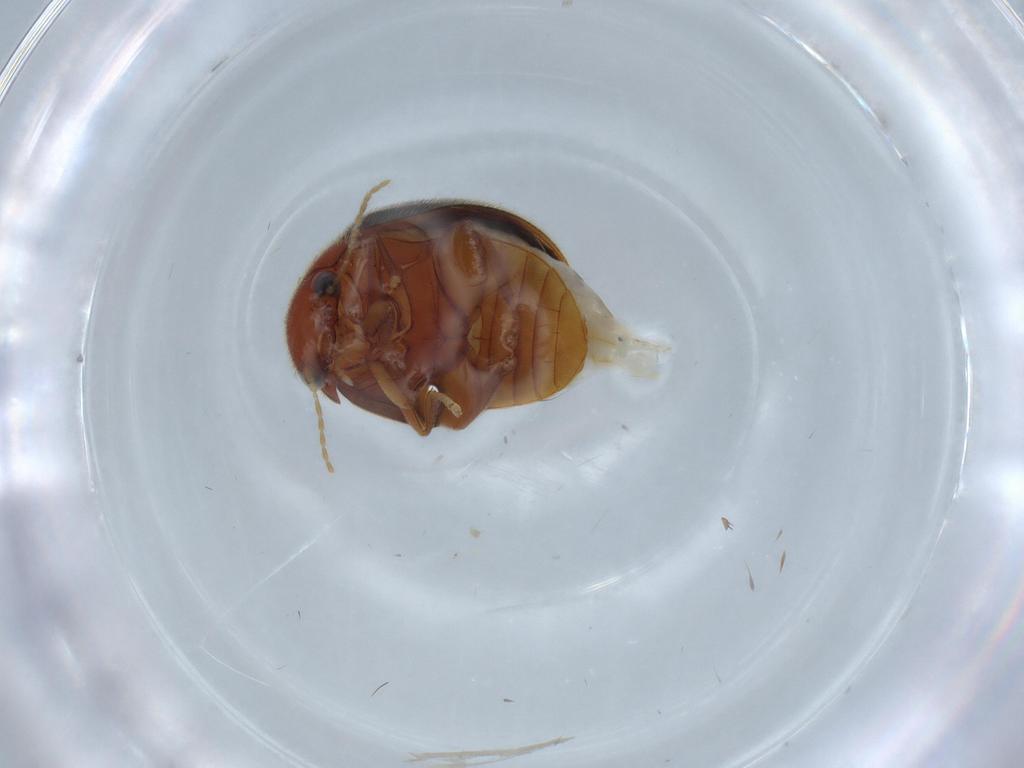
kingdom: Animalia
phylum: Arthropoda
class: Insecta
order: Coleoptera
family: Scirtidae
